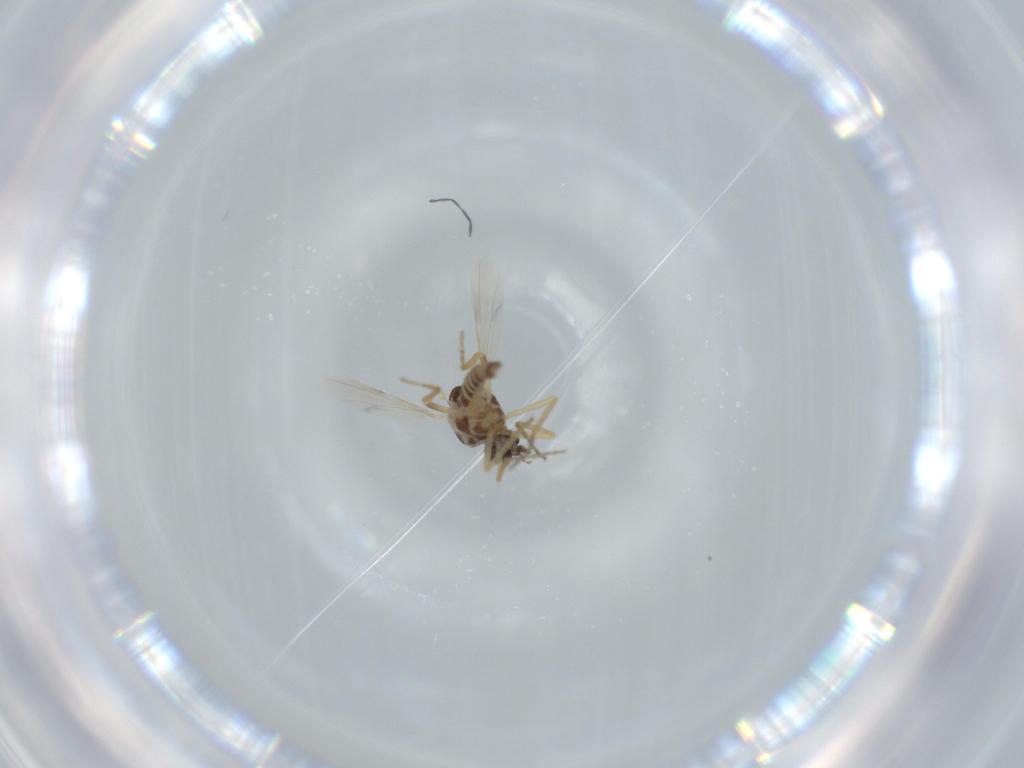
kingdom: Animalia
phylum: Arthropoda
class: Insecta
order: Diptera
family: Ceratopogonidae
